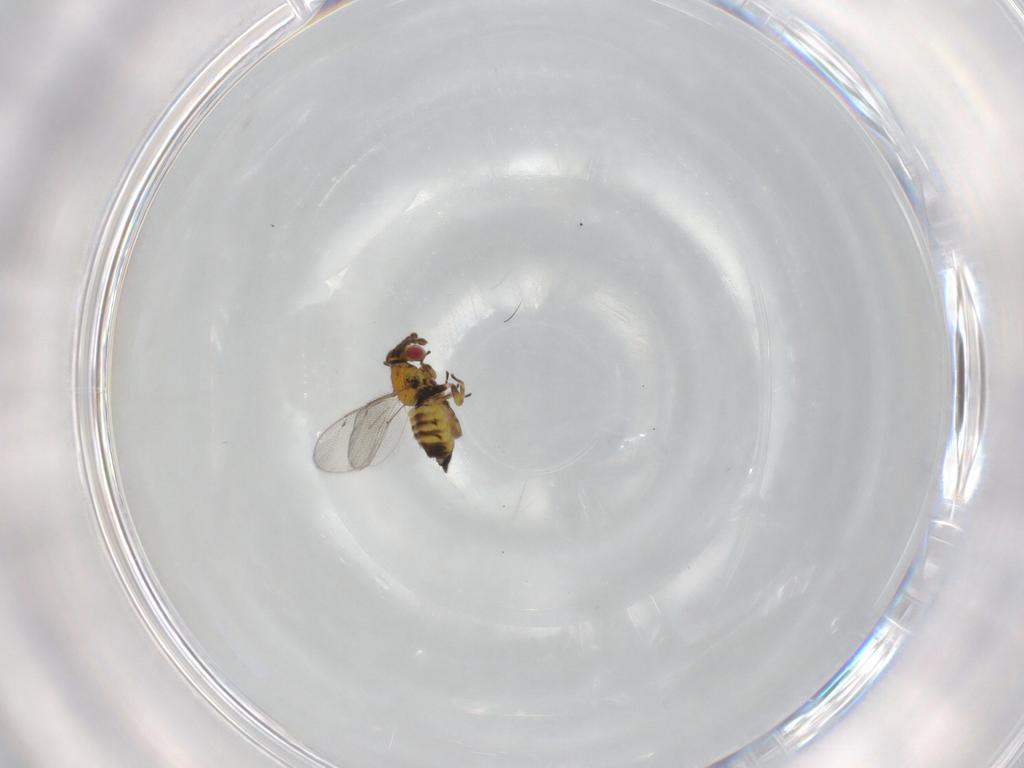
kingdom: Animalia
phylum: Arthropoda
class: Insecta
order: Hymenoptera
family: Eulophidae
